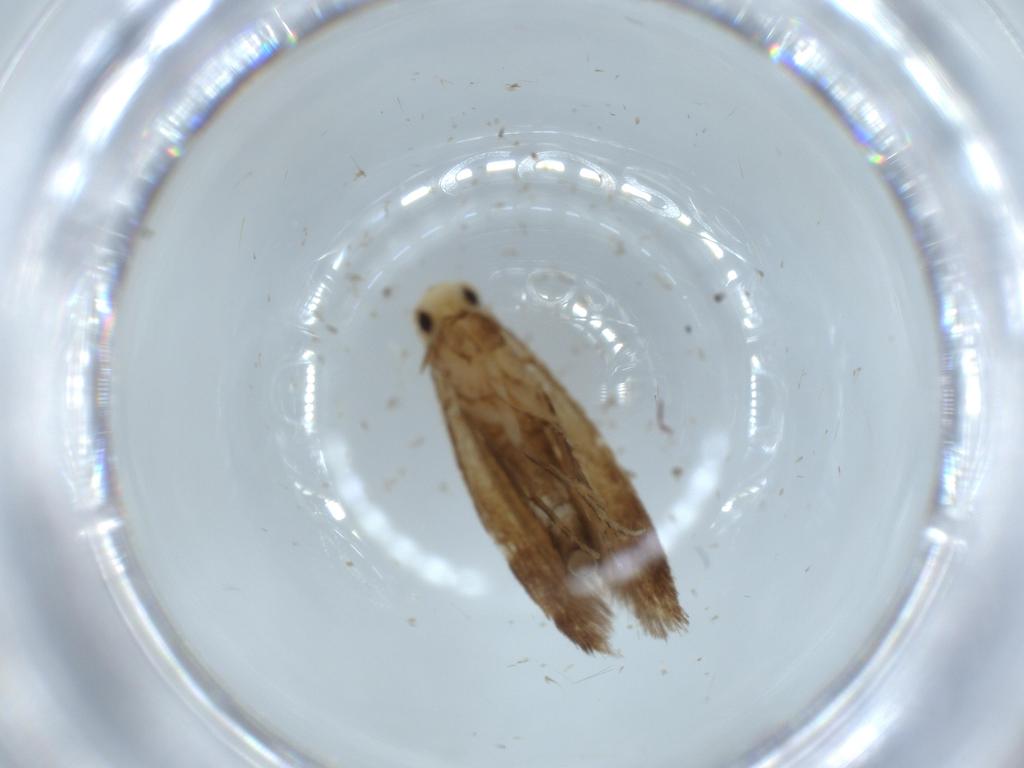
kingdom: Animalia
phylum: Arthropoda
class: Insecta
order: Lepidoptera
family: Tineidae
